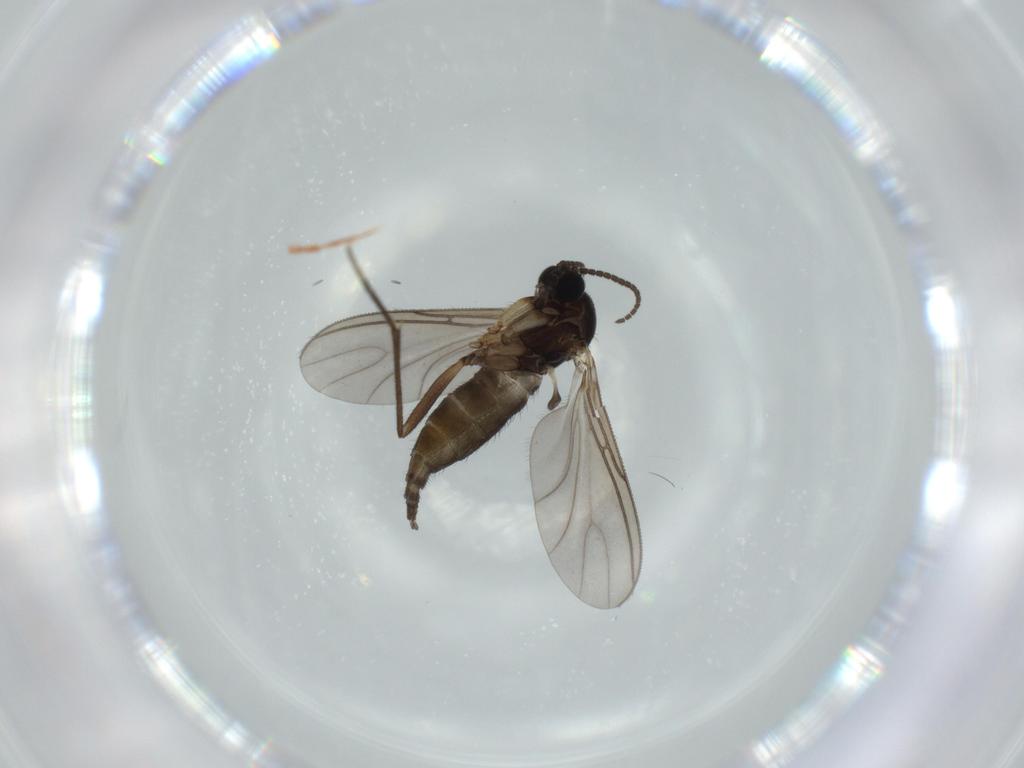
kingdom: Animalia
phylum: Arthropoda
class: Insecta
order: Diptera
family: Sciaridae
